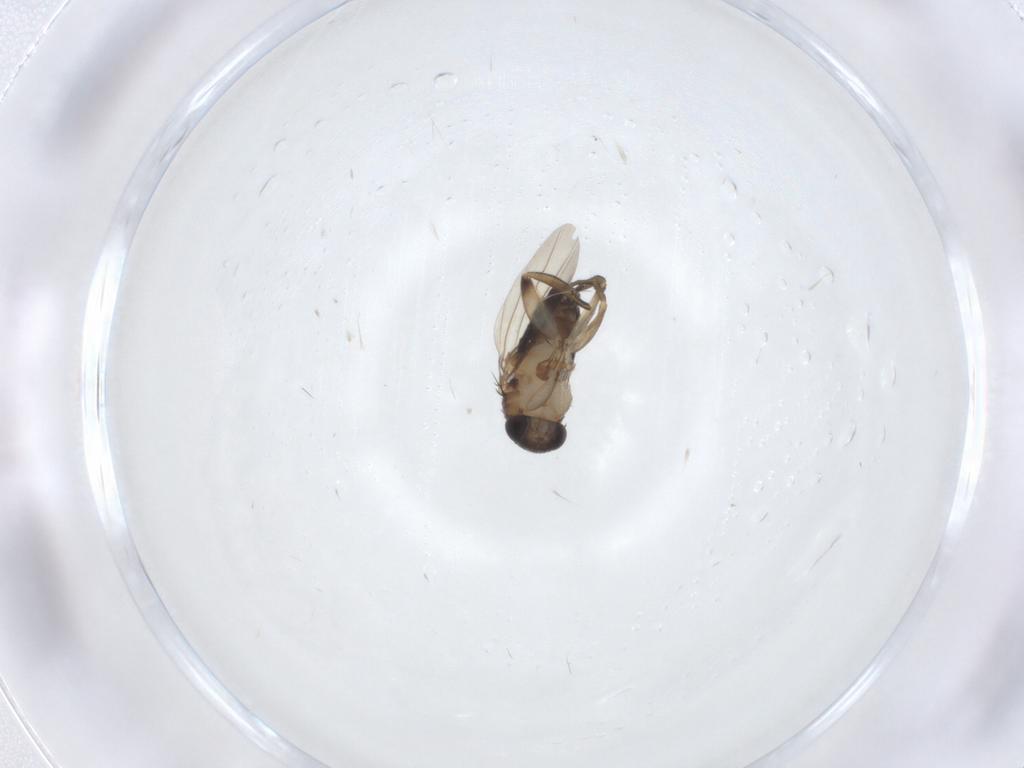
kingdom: Animalia
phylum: Arthropoda
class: Insecta
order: Diptera
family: Phoridae
